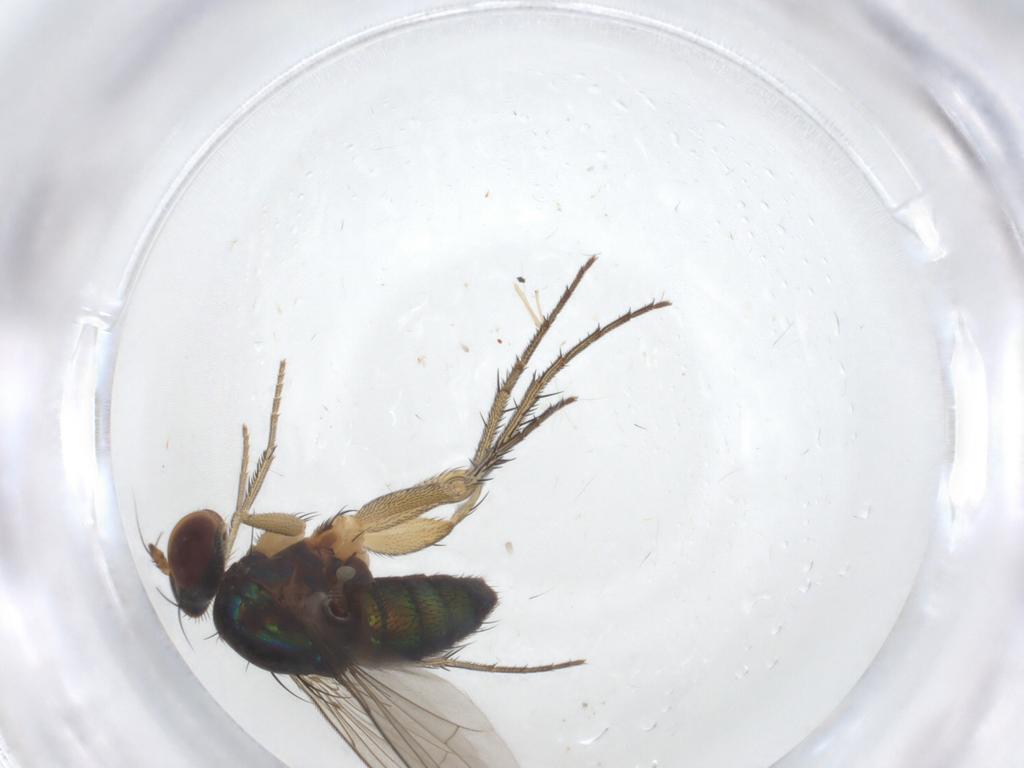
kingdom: Animalia
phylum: Arthropoda
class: Insecta
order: Diptera
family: Dolichopodidae
